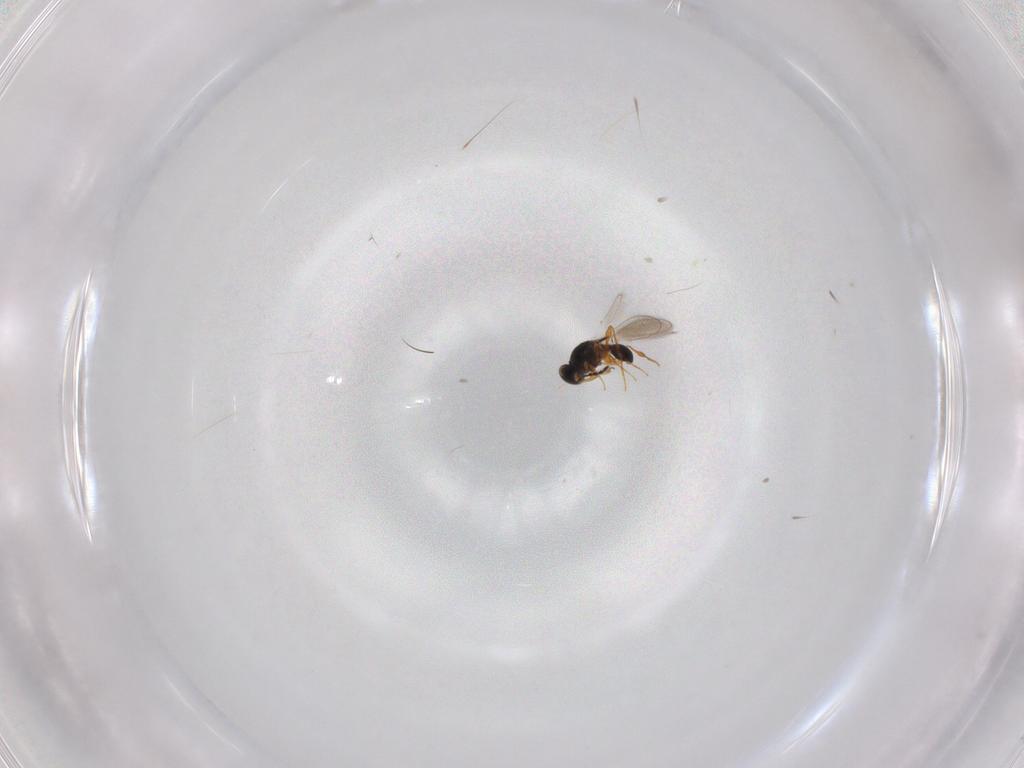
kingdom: Animalia
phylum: Arthropoda
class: Insecta
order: Hymenoptera
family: Platygastridae
